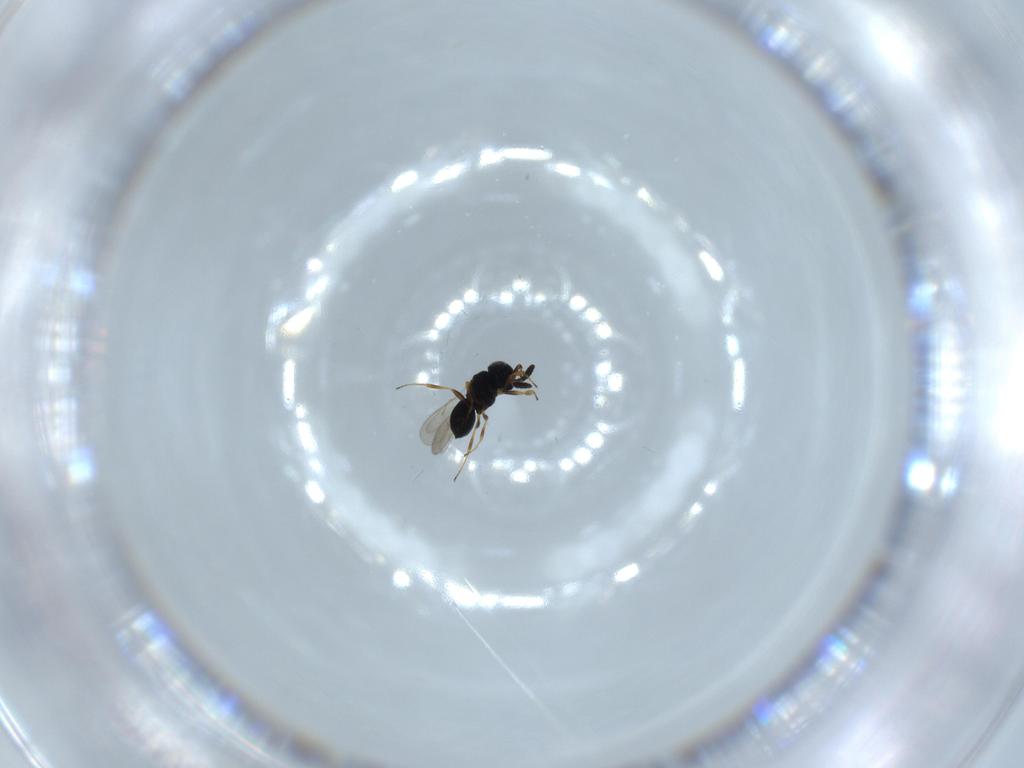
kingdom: Animalia
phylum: Arthropoda
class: Insecta
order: Hymenoptera
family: Scelionidae
